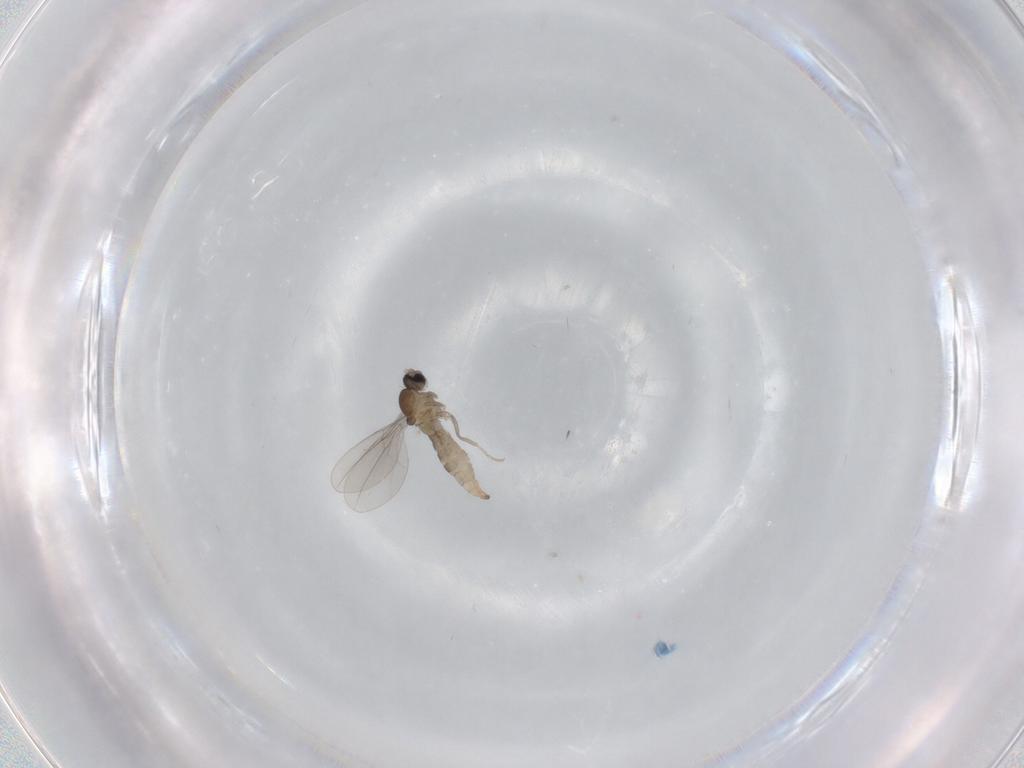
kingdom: Animalia
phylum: Arthropoda
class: Insecta
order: Diptera
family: Cecidomyiidae
